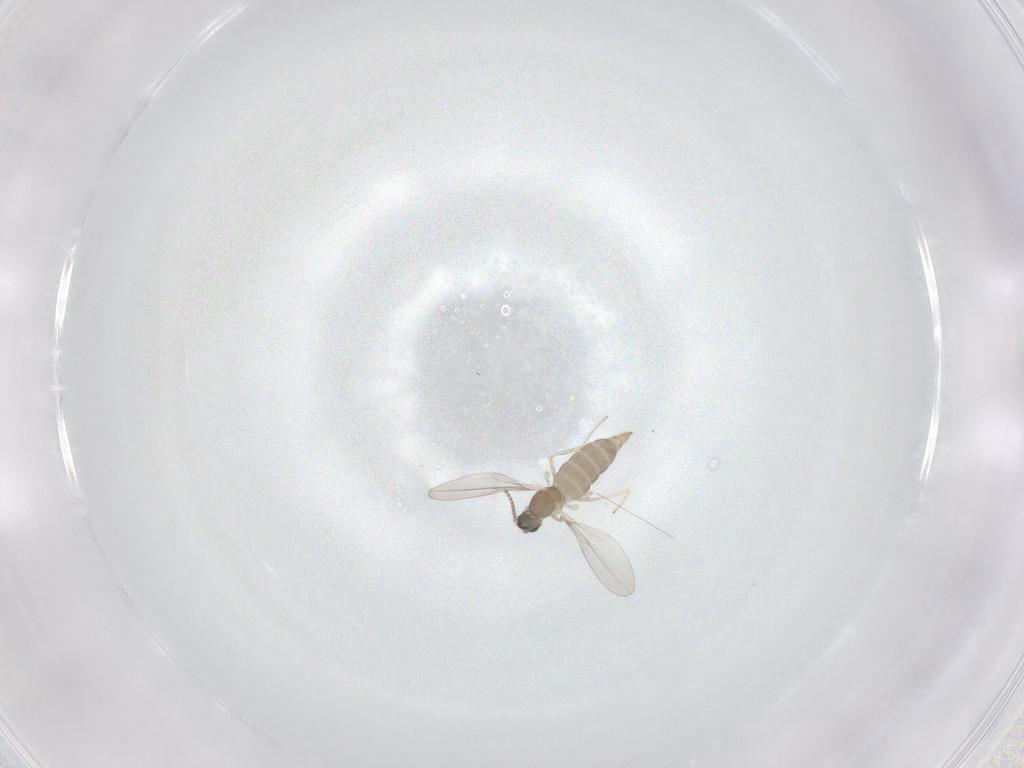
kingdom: Animalia
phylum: Arthropoda
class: Insecta
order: Diptera
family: Cecidomyiidae
